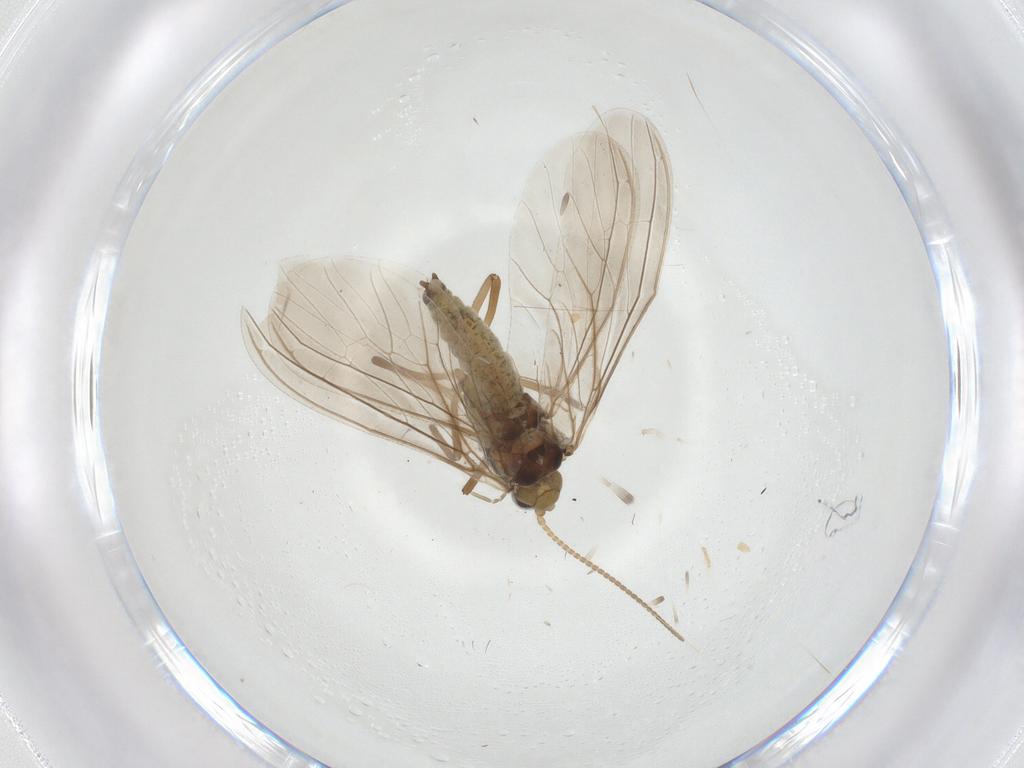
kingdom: Animalia
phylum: Arthropoda
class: Insecta
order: Neuroptera
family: Coniopterygidae
